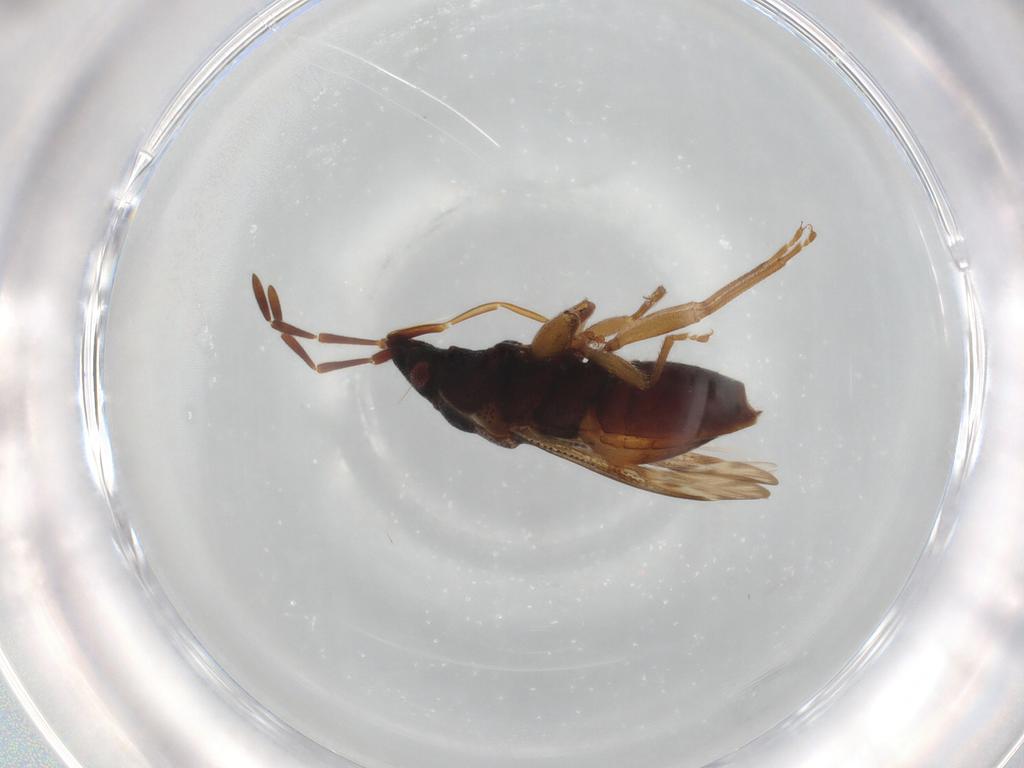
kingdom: Animalia
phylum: Arthropoda
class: Insecta
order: Hemiptera
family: Rhyparochromidae
